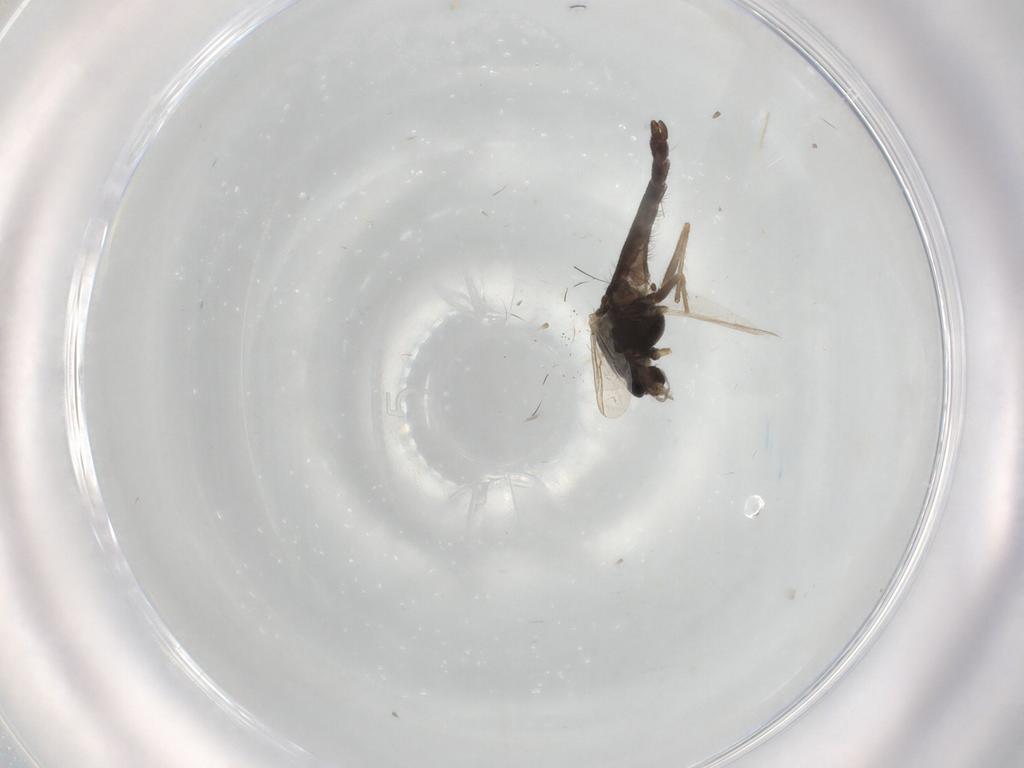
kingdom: Animalia
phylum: Arthropoda
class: Insecta
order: Diptera
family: Chironomidae
